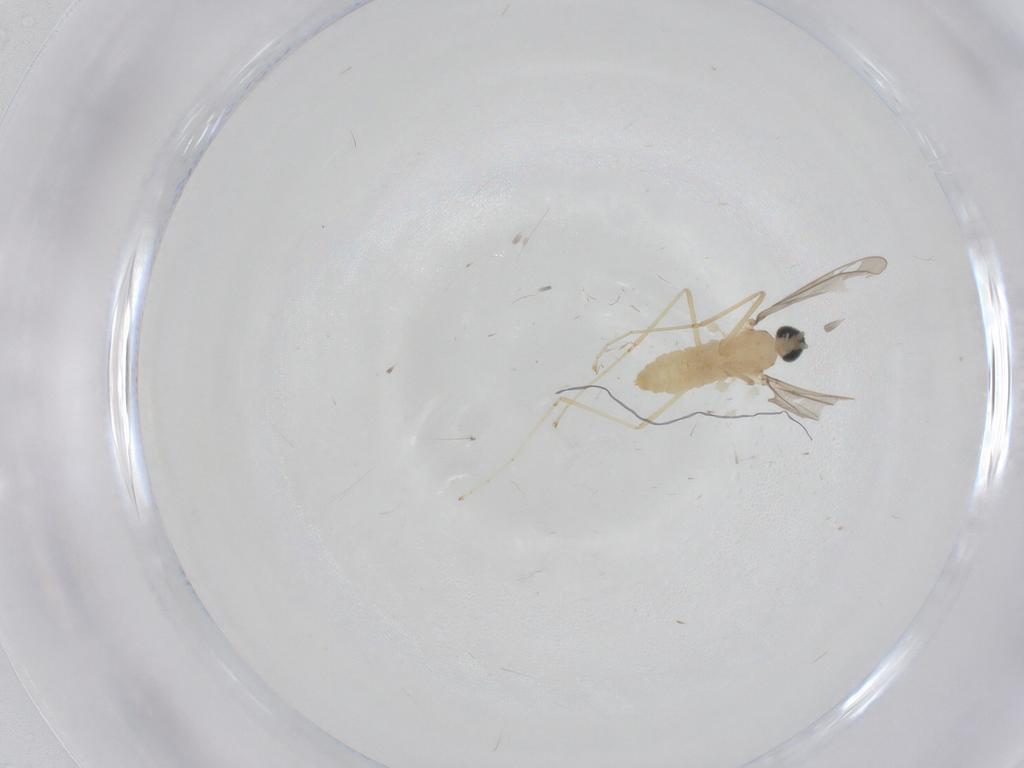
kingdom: Animalia
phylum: Arthropoda
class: Insecta
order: Diptera
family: Cecidomyiidae
